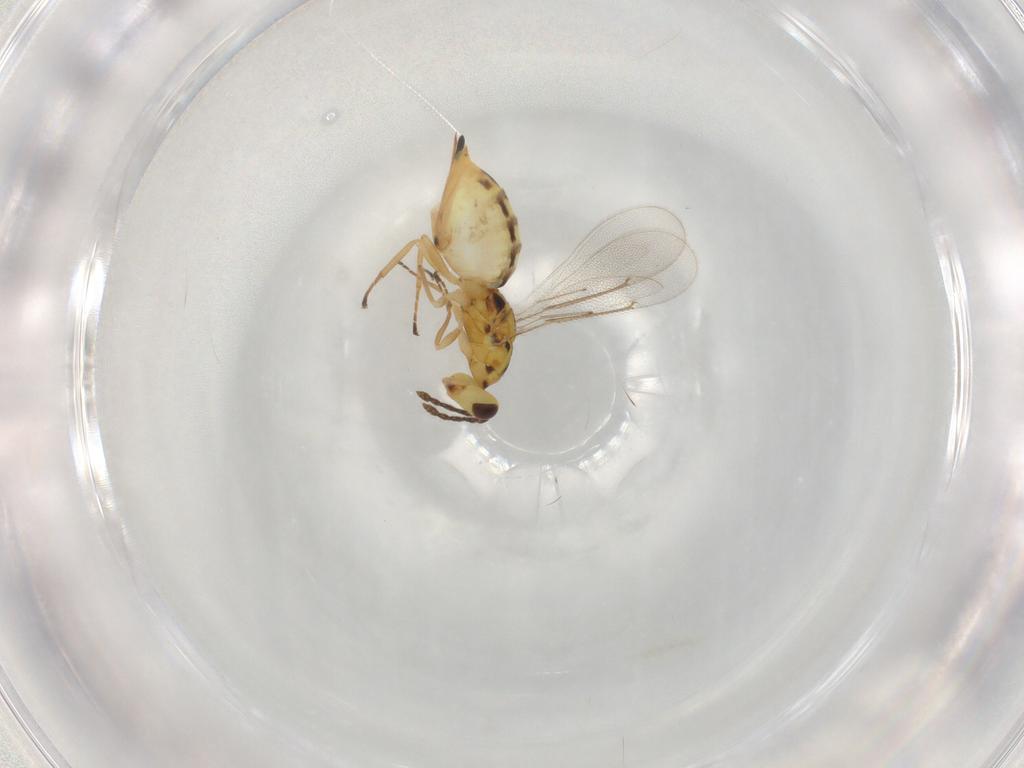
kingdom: Animalia
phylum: Arthropoda
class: Insecta
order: Hymenoptera
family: Eulophidae
